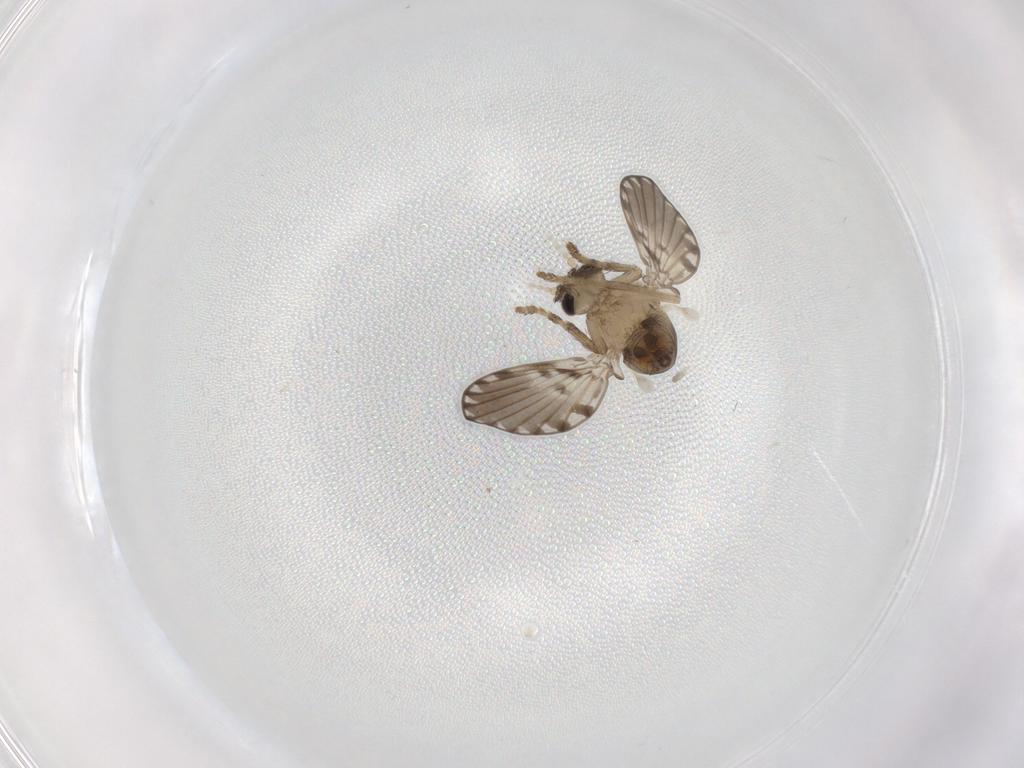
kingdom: Animalia
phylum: Arthropoda
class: Insecta
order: Diptera
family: Psychodidae
